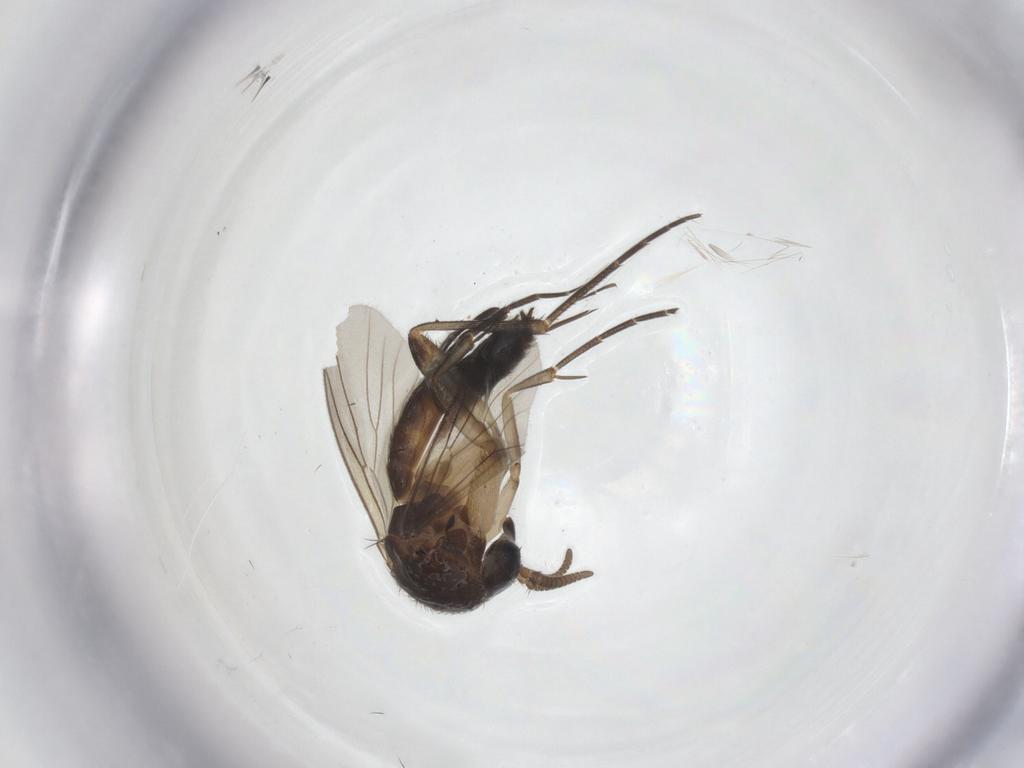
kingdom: Animalia
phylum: Arthropoda
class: Insecta
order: Diptera
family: Mycetophilidae
